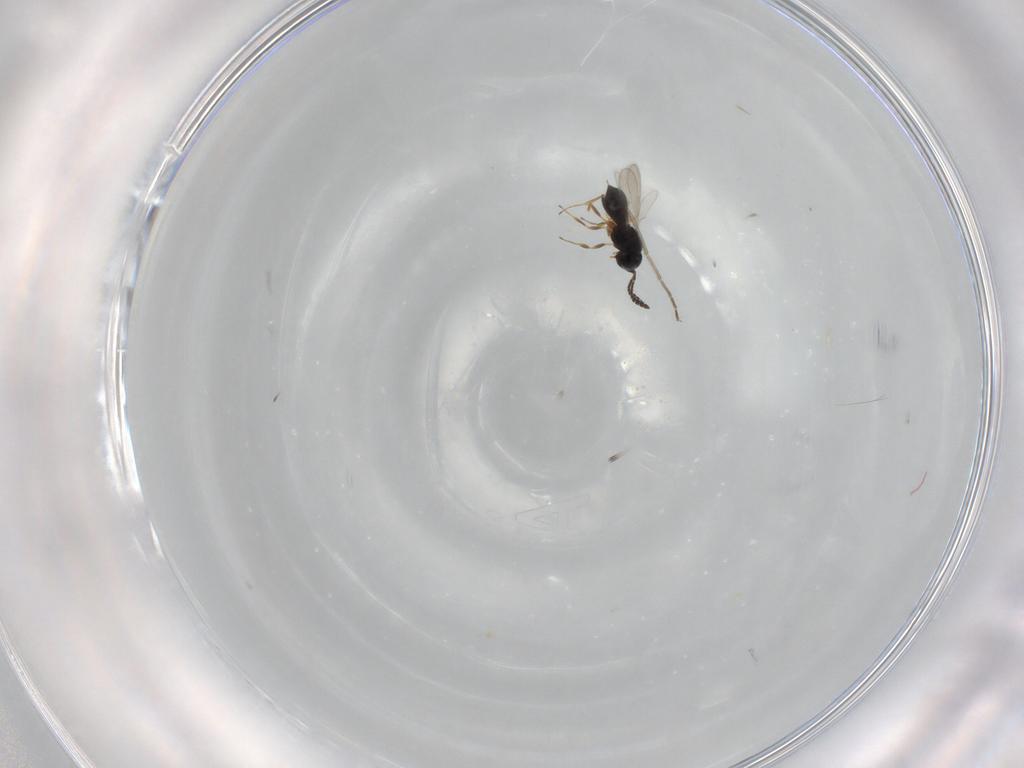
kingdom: Animalia
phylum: Arthropoda
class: Insecta
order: Hymenoptera
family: Scelionidae
